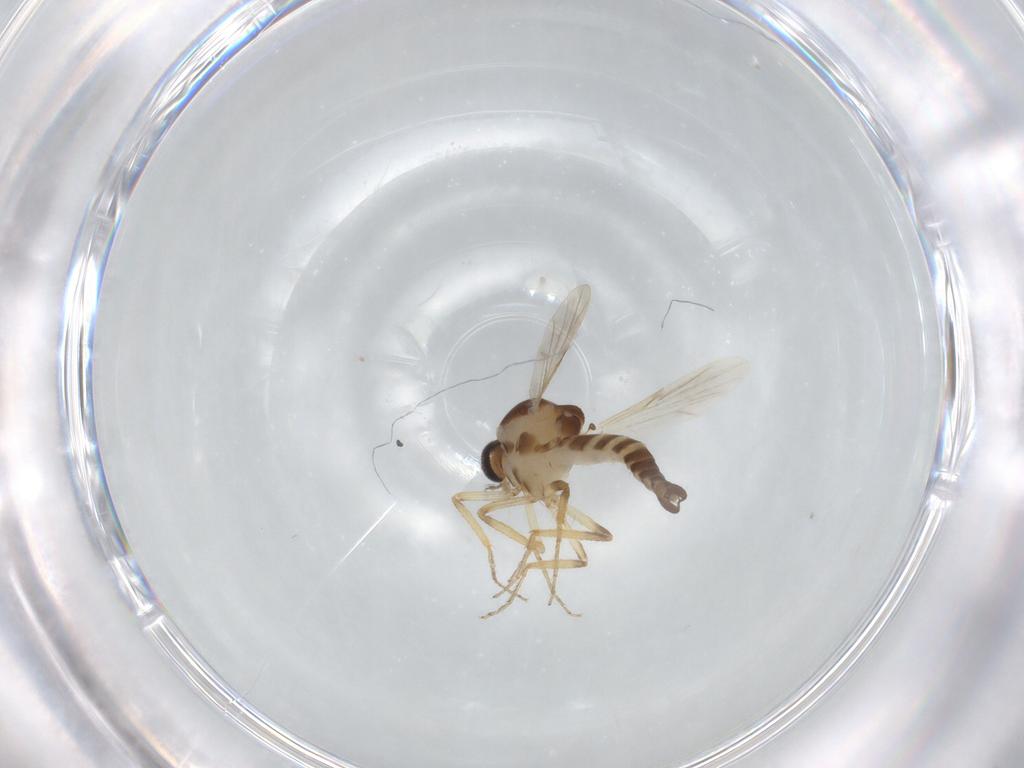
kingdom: Animalia
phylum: Arthropoda
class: Insecta
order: Diptera
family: Ceratopogonidae
